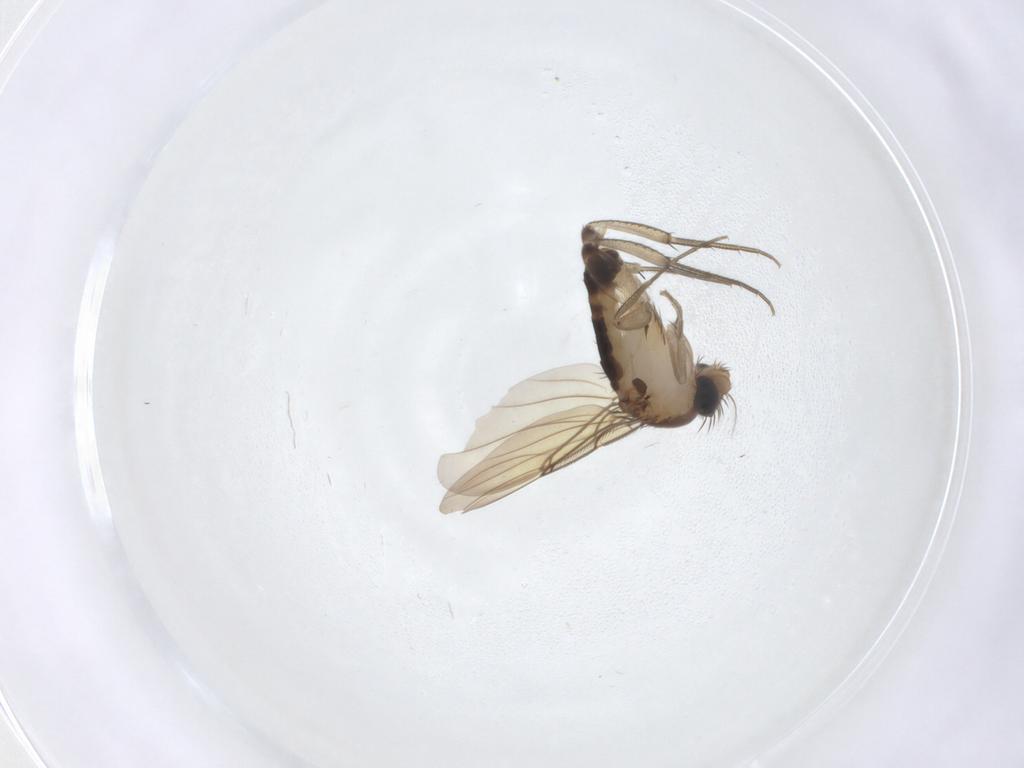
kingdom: Animalia
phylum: Arthropoda
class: Insecta
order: Diptera
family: Phoridae
